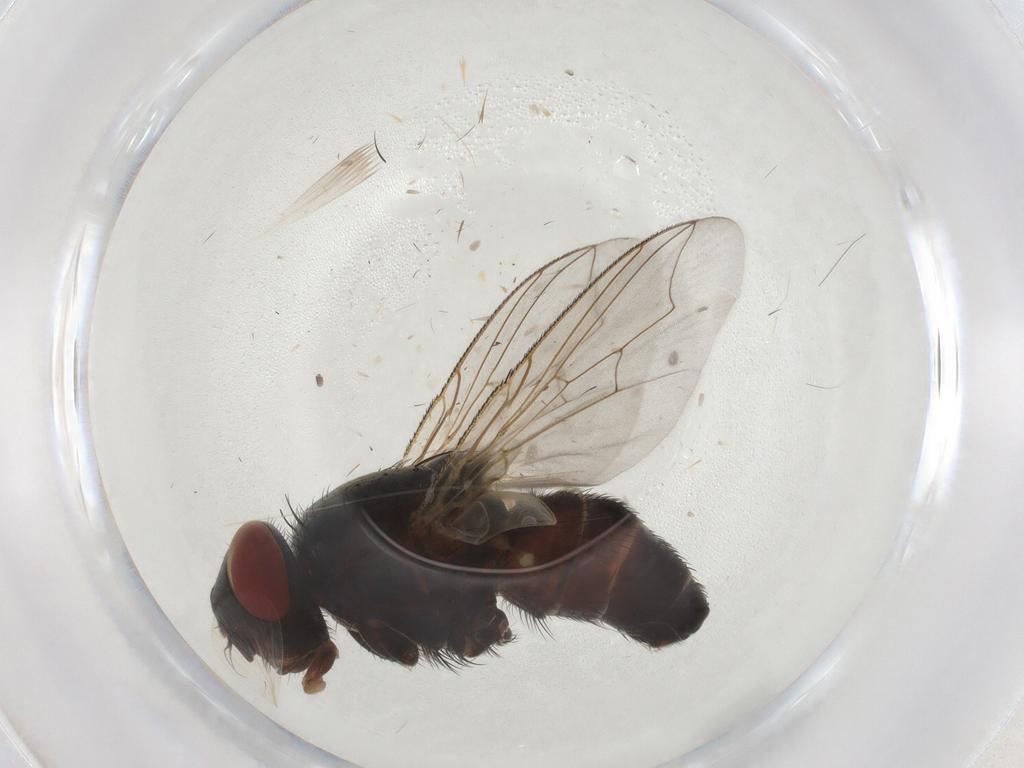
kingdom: Animalia
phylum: Arthropoda
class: Insecta
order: Diptera
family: Sarcophagidae
